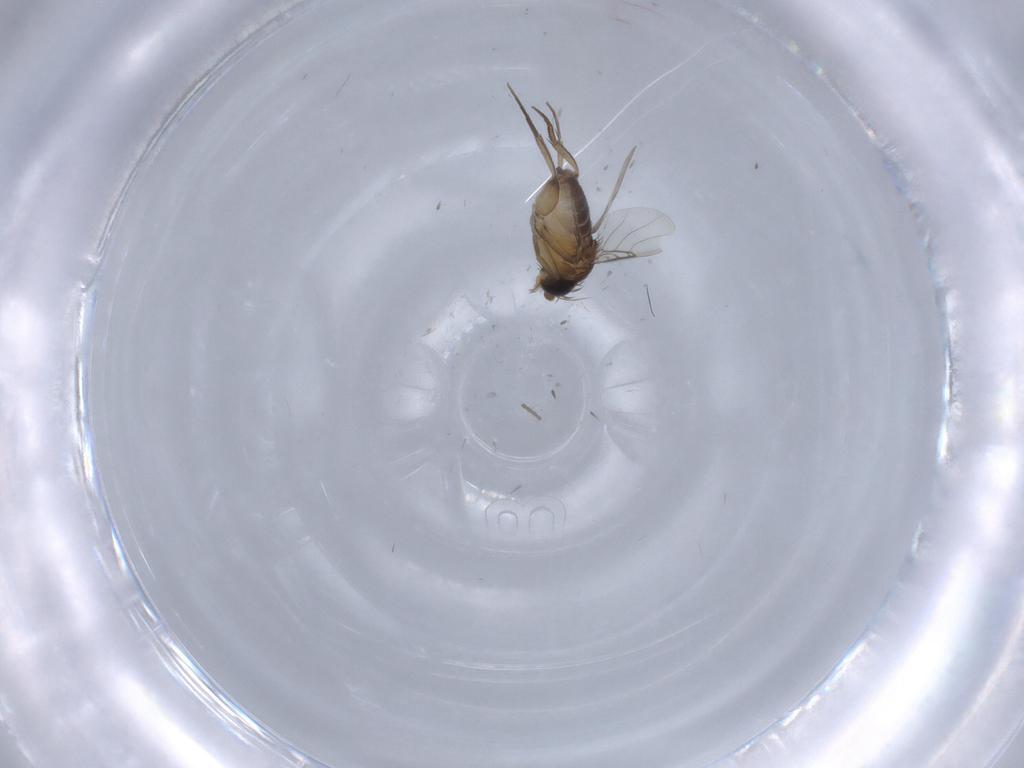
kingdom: Animalia
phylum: Arthropoda
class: Insecta
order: Diptera
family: Phoridae
